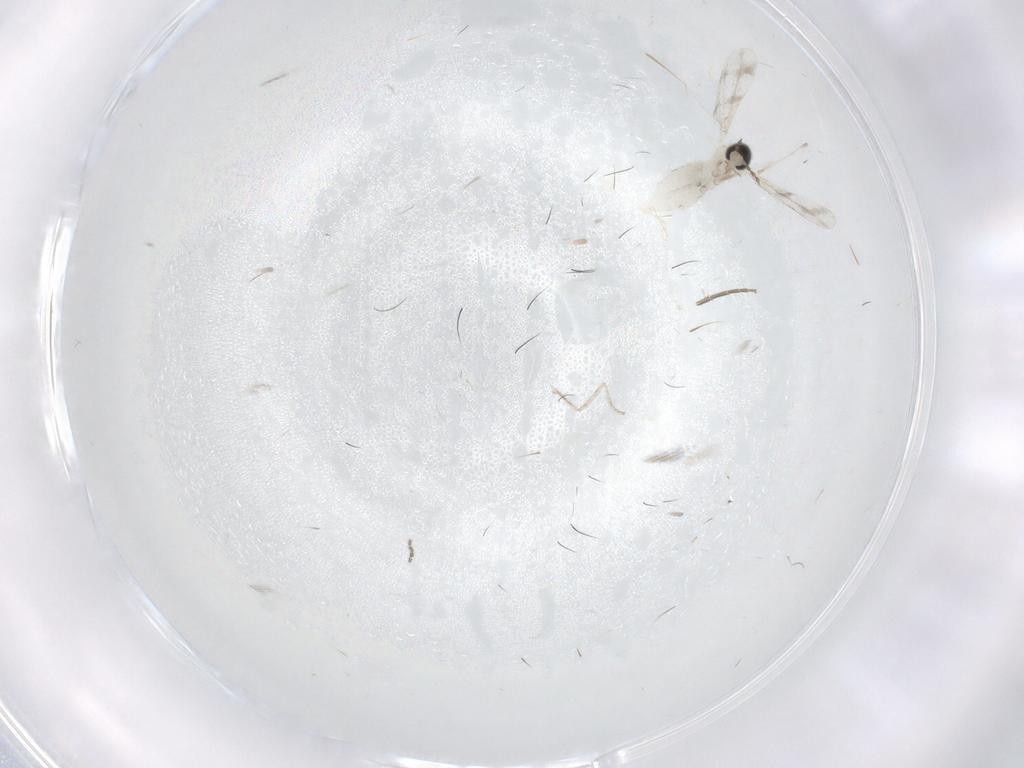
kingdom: Animalia
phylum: Arthropoda
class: Insecta
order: Diptera
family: Cecidomyiidae
